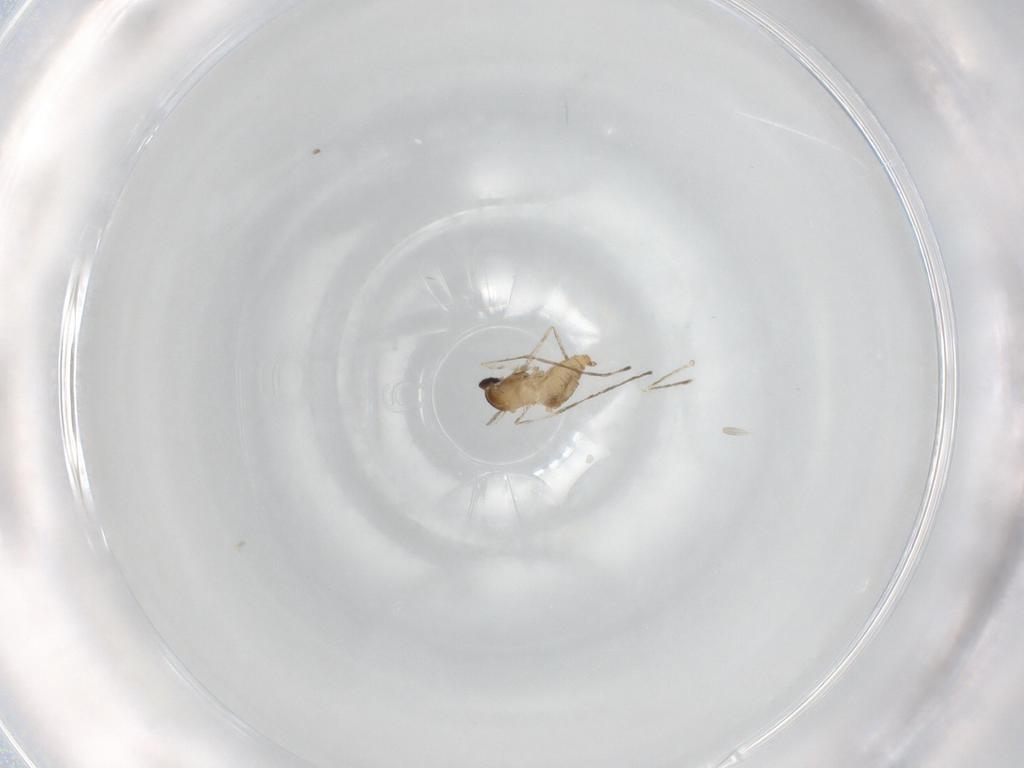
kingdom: Animalia
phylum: Arthropoda
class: Insecta
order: Diptera
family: Cecidomyiidae
